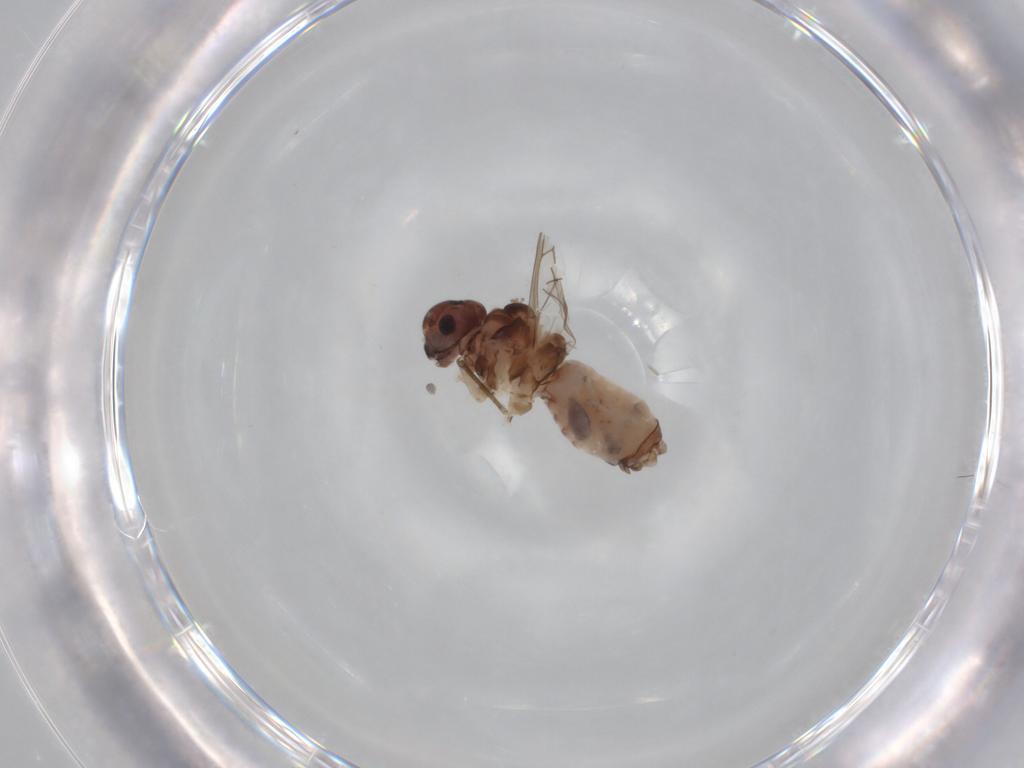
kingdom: Animalia
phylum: Arthropoda
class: Insecta
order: Psocodea
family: Peripsocidae
